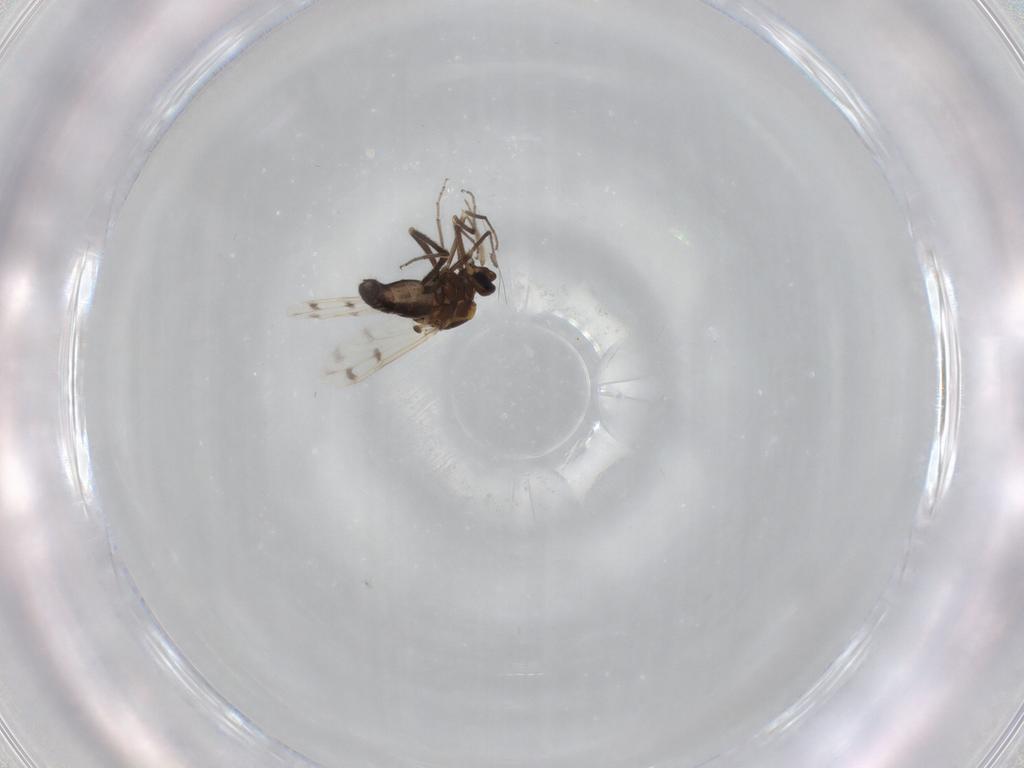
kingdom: Animalia
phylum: Arthropoda
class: Insecta
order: Diptera
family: Ceratopogonidae
